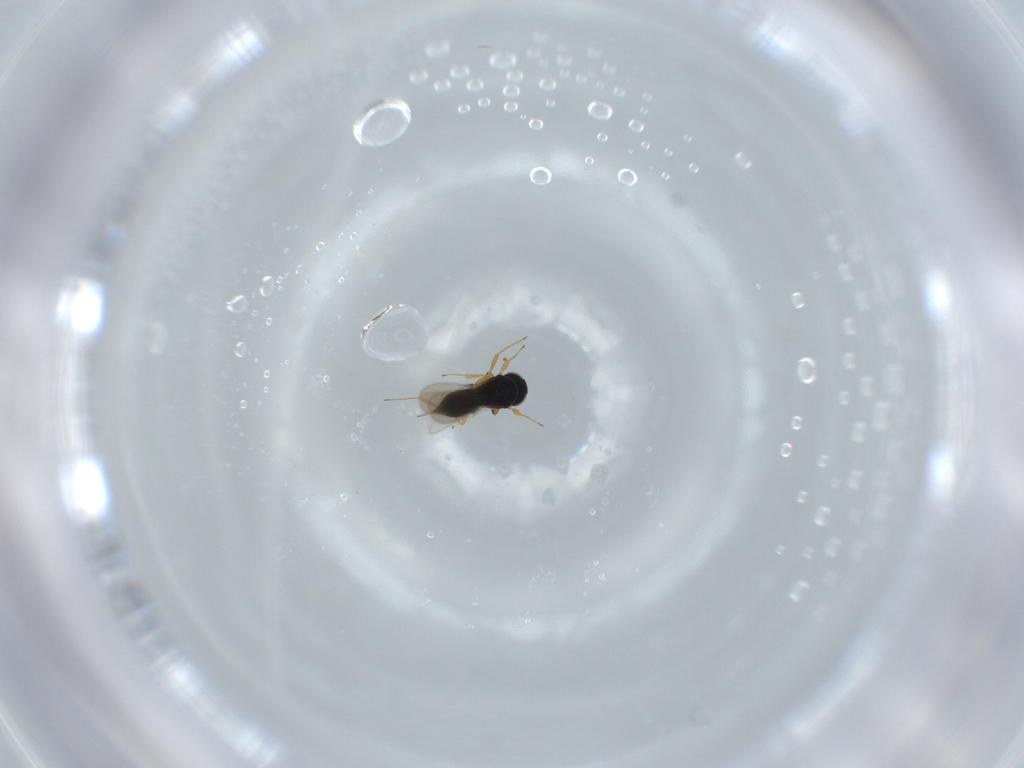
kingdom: Animalia
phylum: Arthropoda
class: Insecta
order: Hymenoptera
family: Scelionidae
